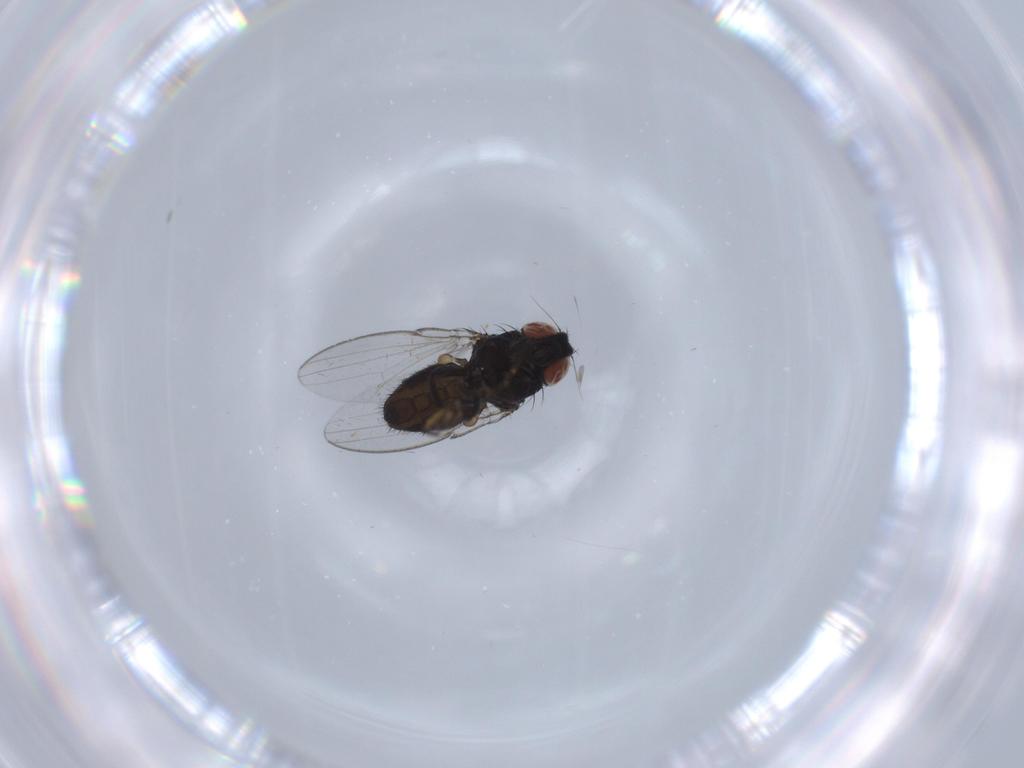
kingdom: Animalia
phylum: Arthropoda
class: Insecta
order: Diptera
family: Milichiidae
